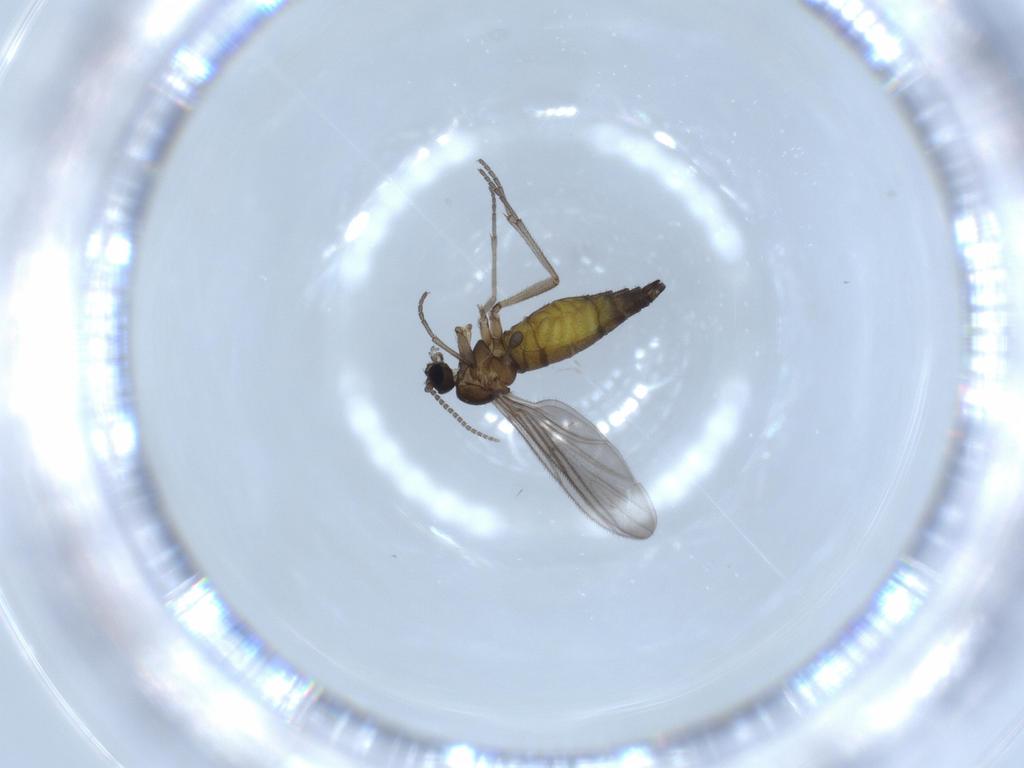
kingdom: Animalia
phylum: Arthropoda
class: Insecta
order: Diptera
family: Sciaridae
